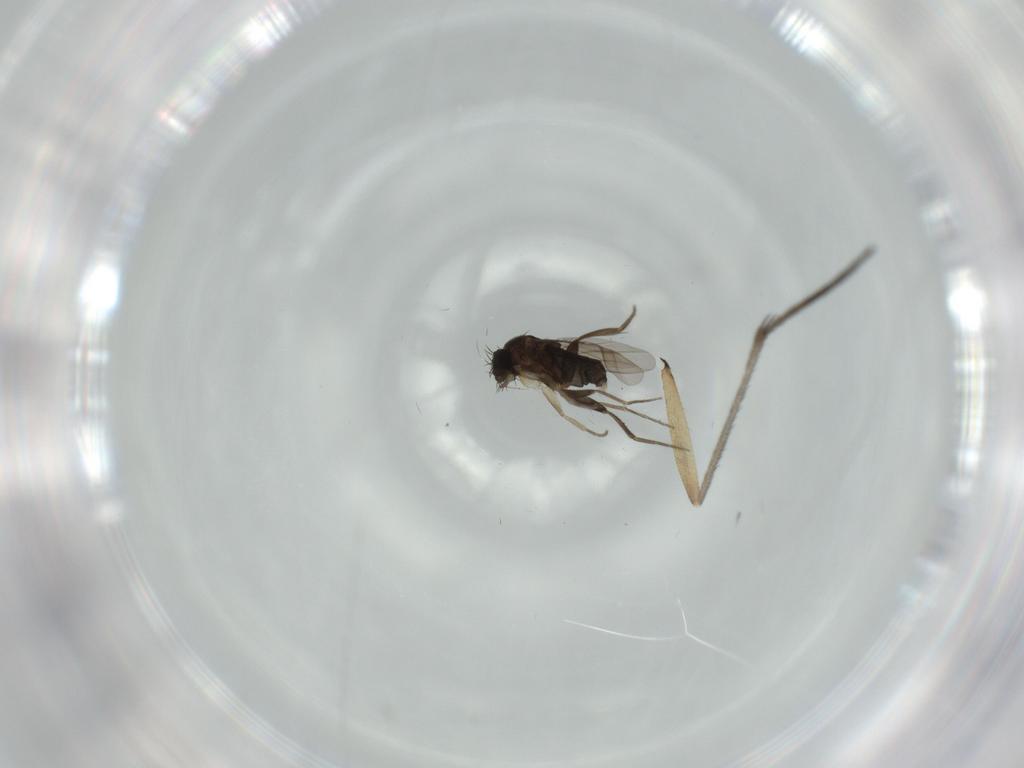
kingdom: Animalia
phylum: Arthropoda
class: Insecta
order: Diptera
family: Sciaridae
